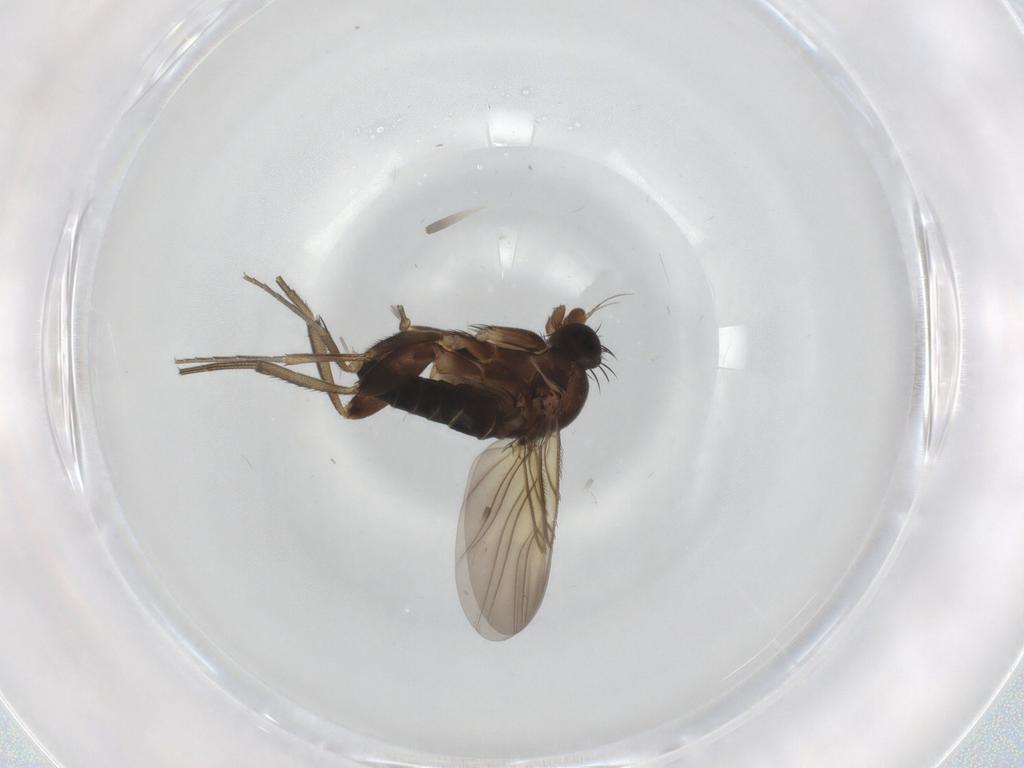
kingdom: Animalia
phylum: Arthropoda
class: Insecta
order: Diptera
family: Phoridae
